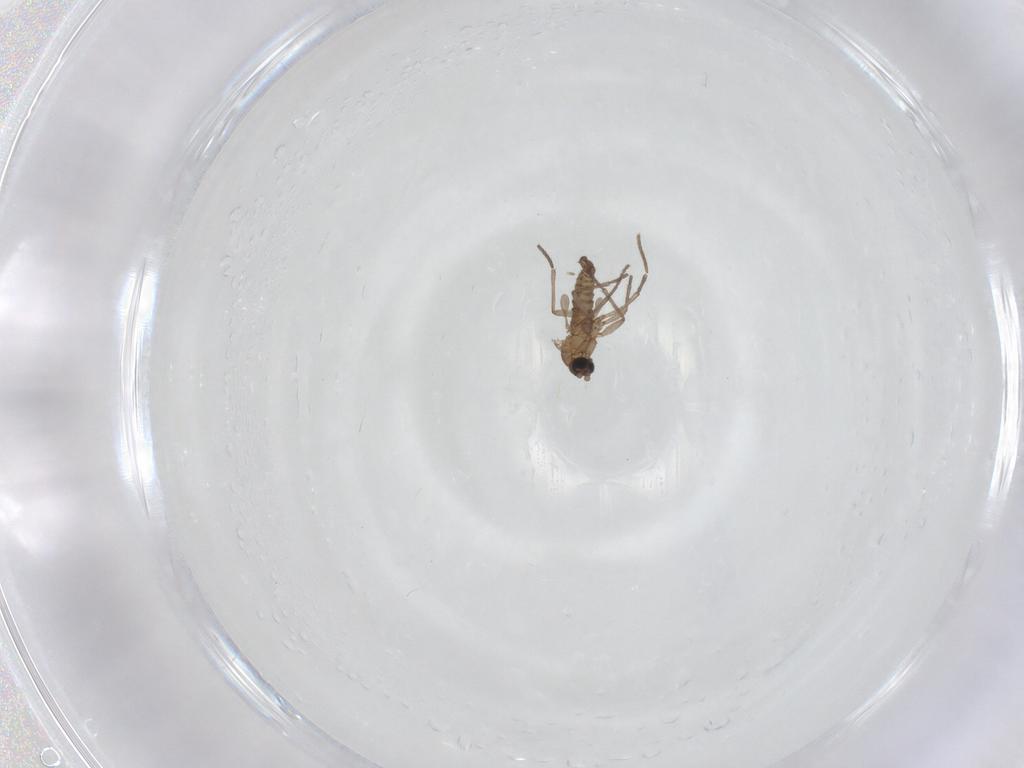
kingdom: Animalia
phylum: Arthropoda
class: Insecta
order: Diptera
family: Sciaridae
